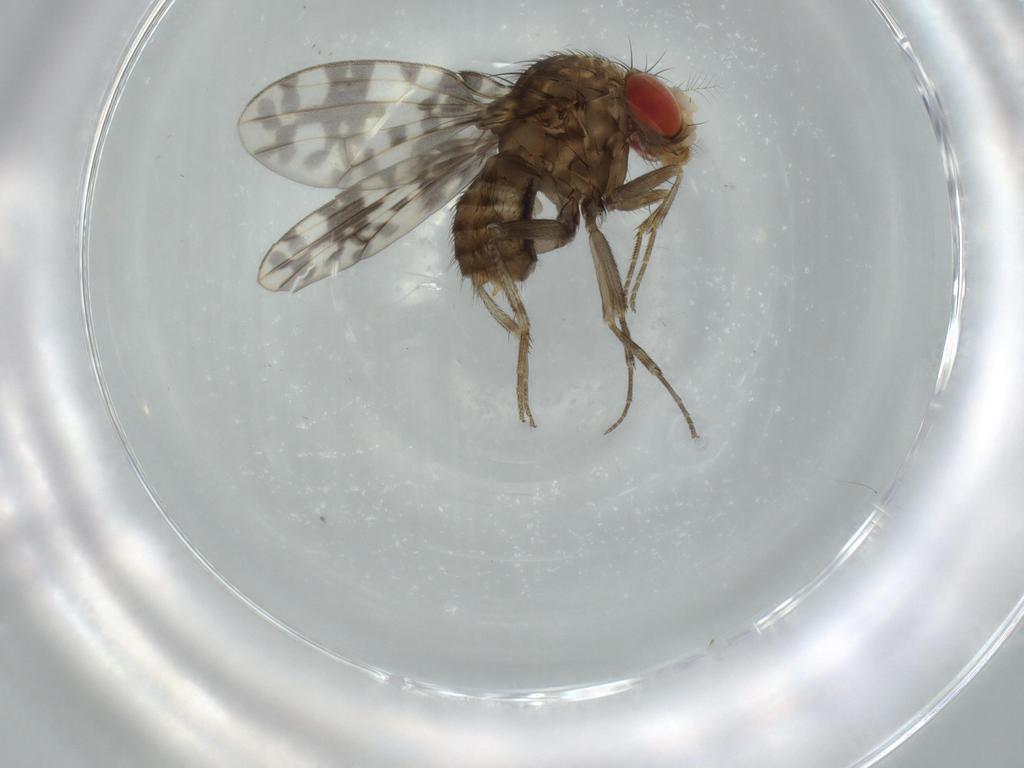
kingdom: Animalia
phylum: Arthropoda
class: Insecta
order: Diptera
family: Drosophilidae
